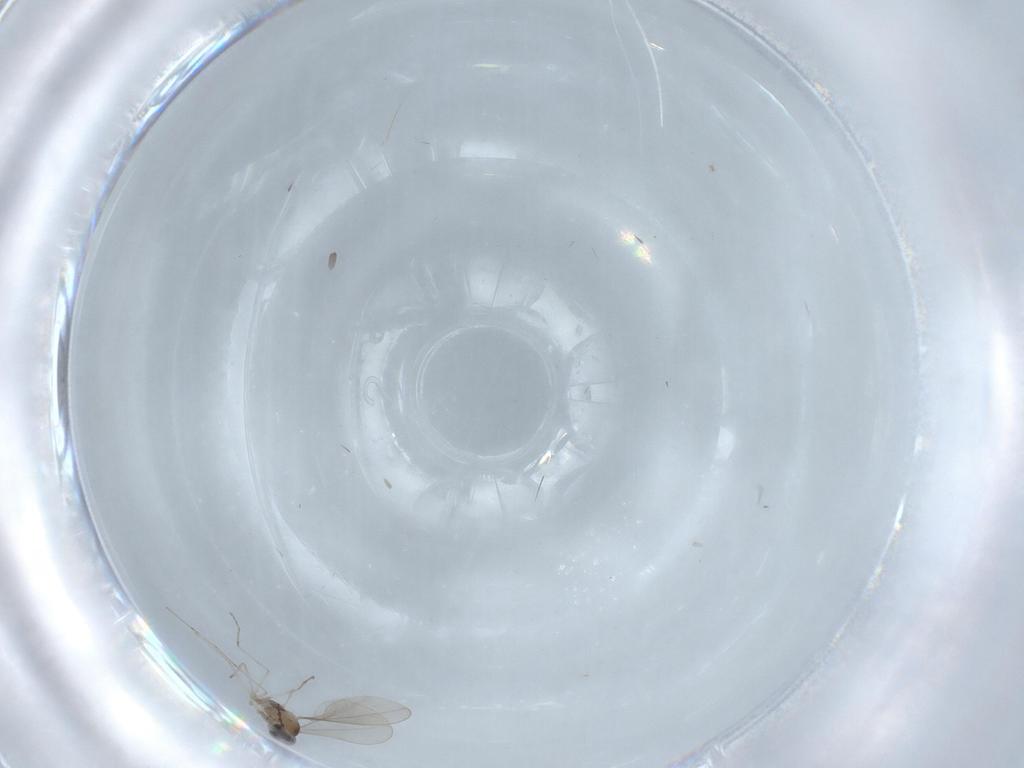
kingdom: Animalia
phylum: Arthropoda
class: Insecta
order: Diptera
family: Cecidomyiidae
